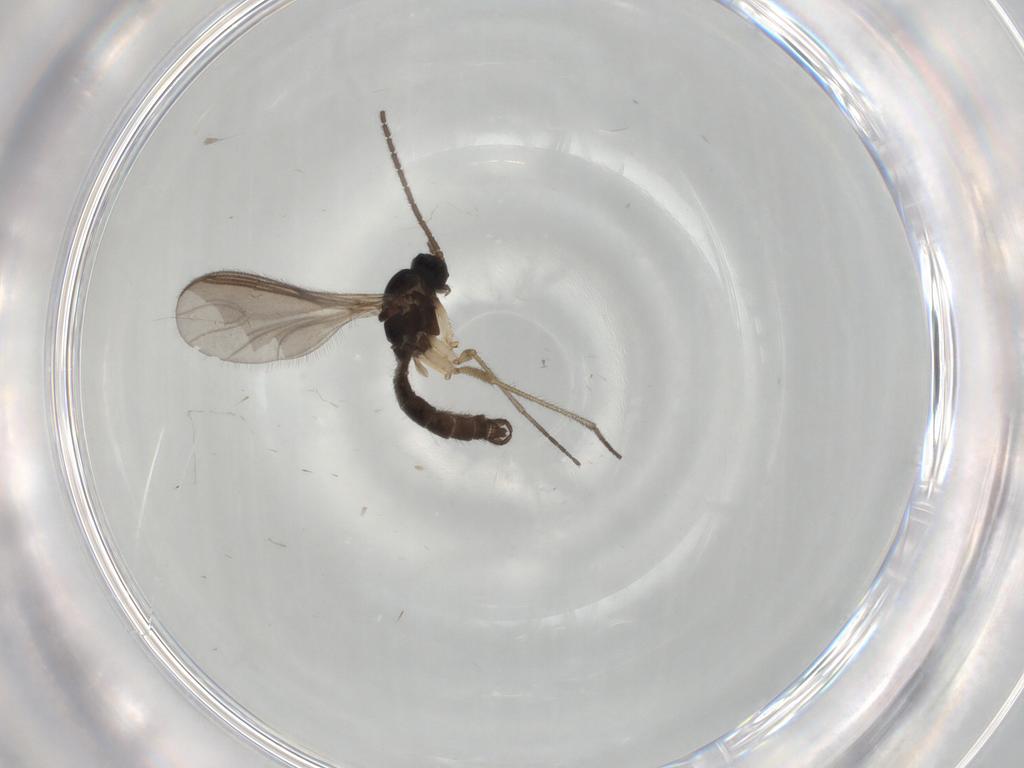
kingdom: Animalia
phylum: Arthropoda
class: Insecta
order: Diptera
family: Sciaridae
